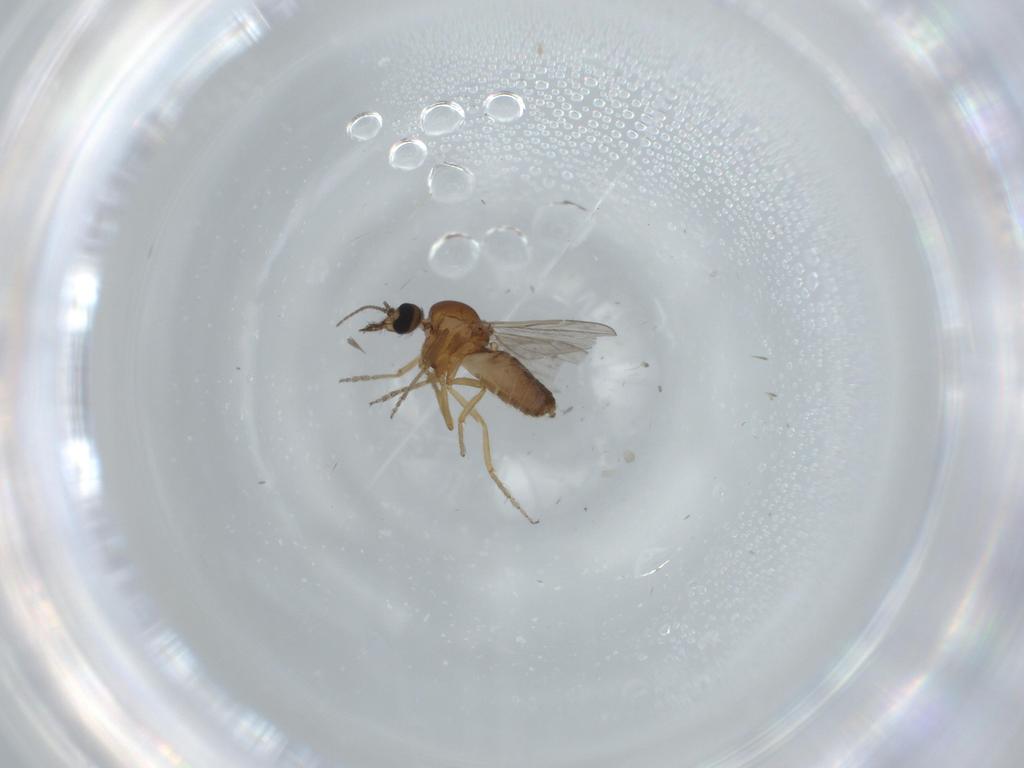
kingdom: Animalia
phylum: Arthropoda
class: Insecta
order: Diptera
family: Ceratopogonidae
